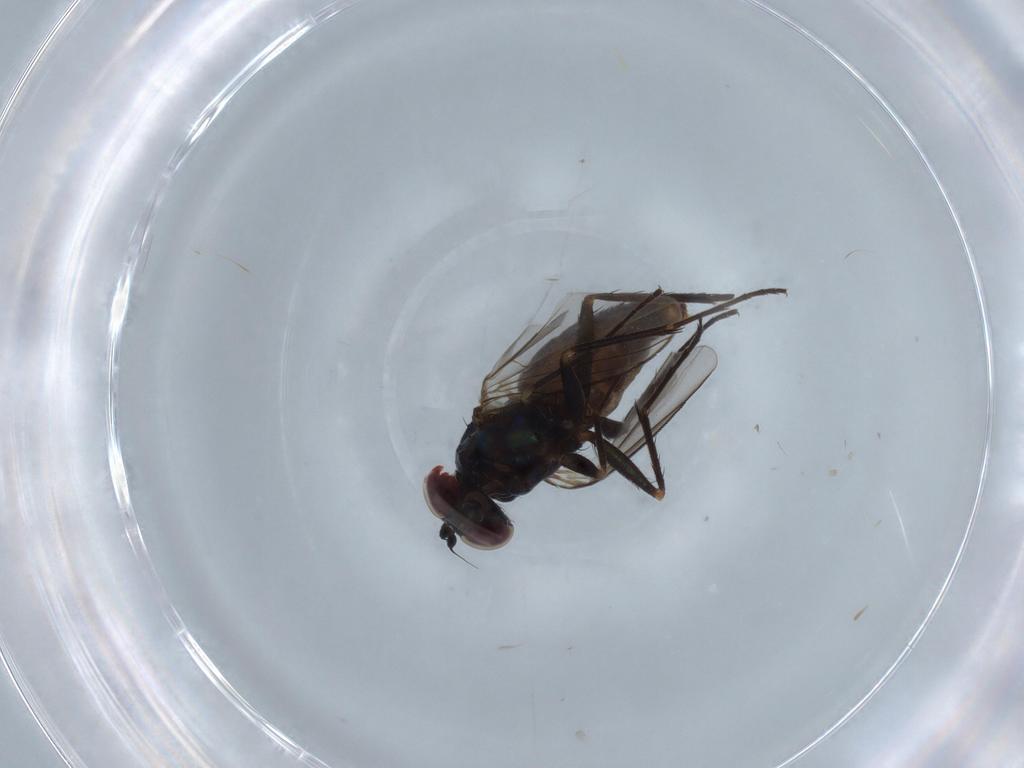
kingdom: Animalia
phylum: Arthropoda
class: Insecta
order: Diptera
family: Dolichopodidae
